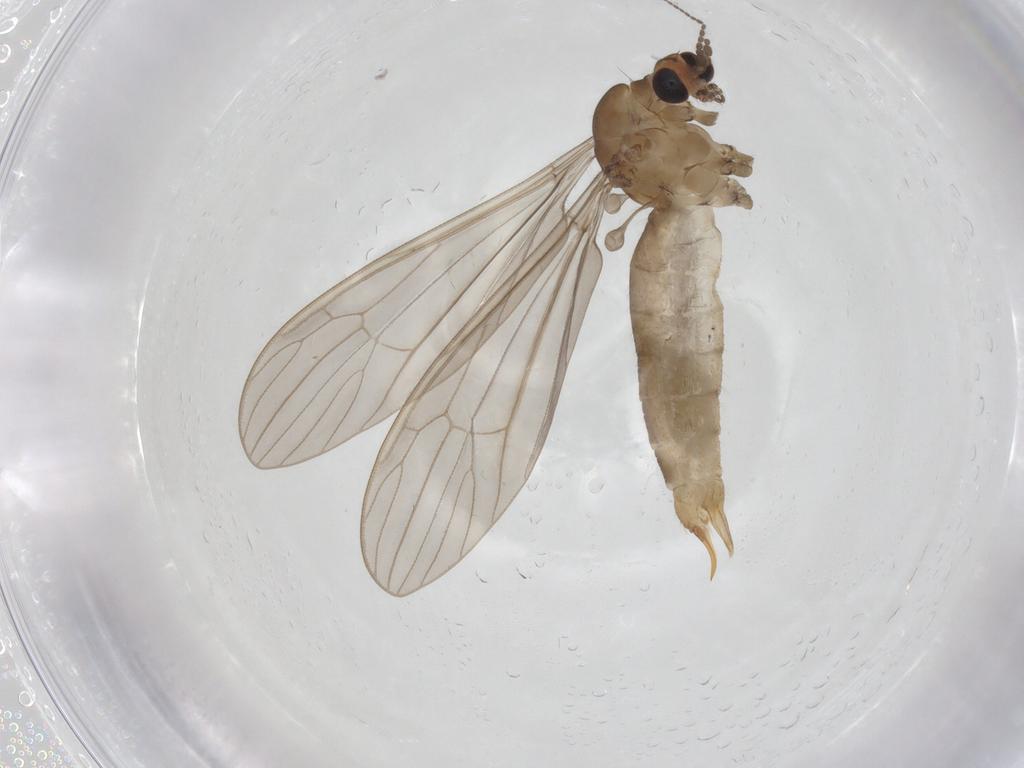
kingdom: Animalia
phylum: Arthropoda
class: Insecta
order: Diptera
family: Limoniidae
